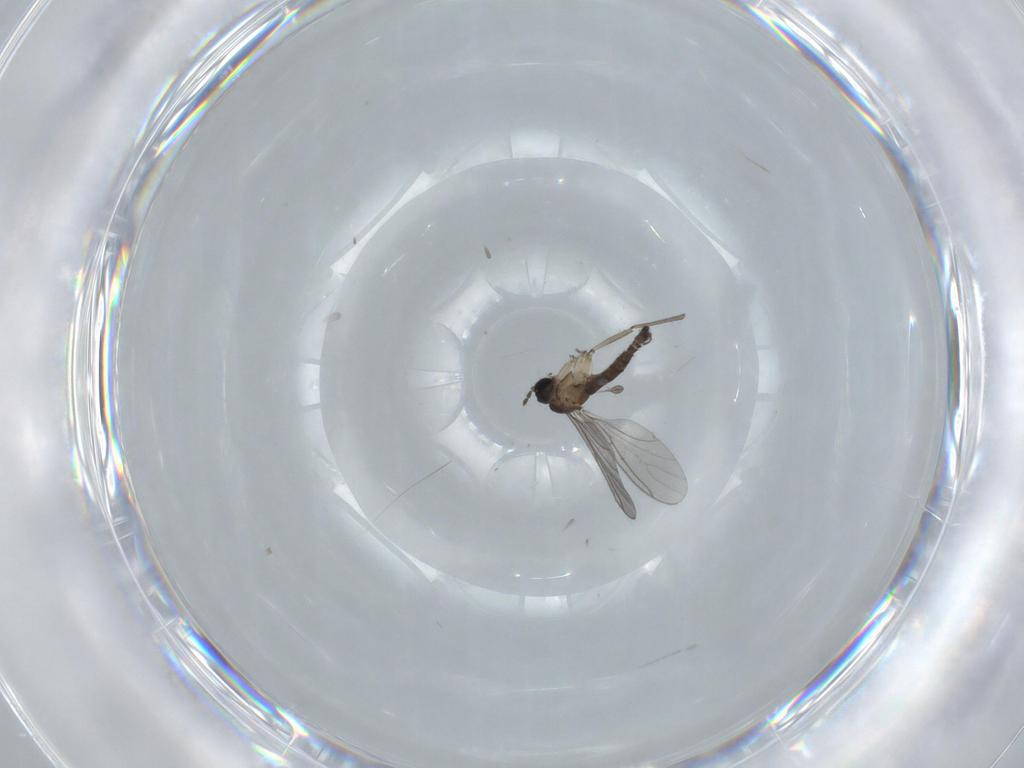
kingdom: Animalia
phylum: Arthropoda
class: Insecta
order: Diptera
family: Sciaridae
